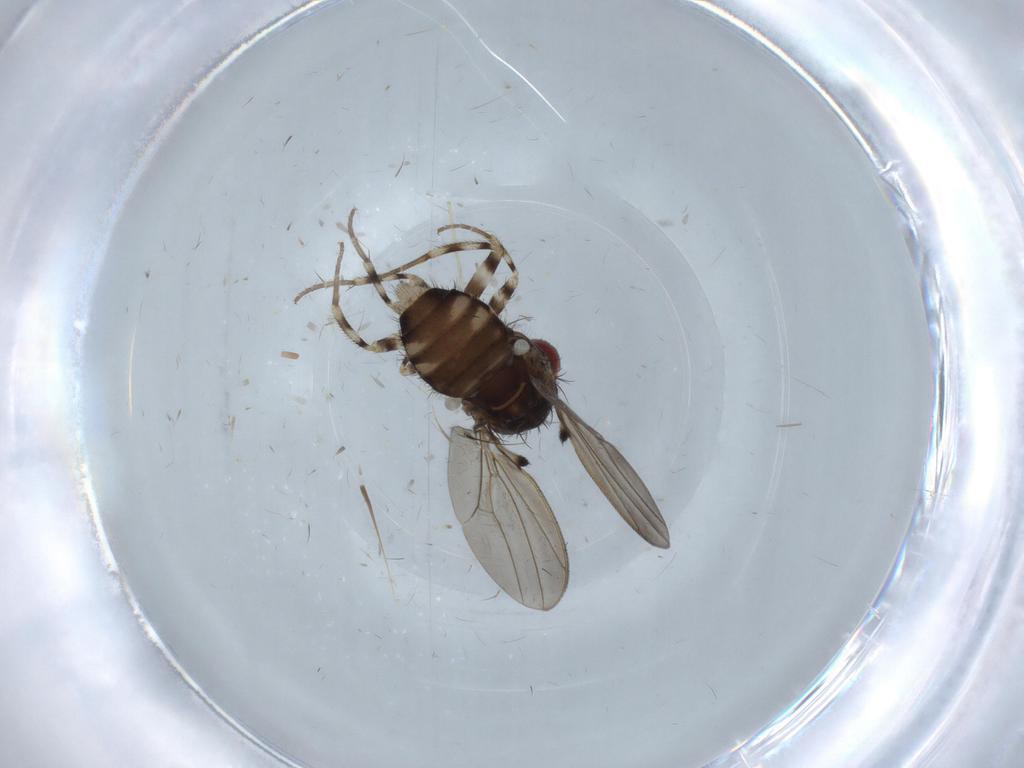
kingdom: Animalia
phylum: Arthropoda
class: Insecta
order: Diptera
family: Drosophilidae
